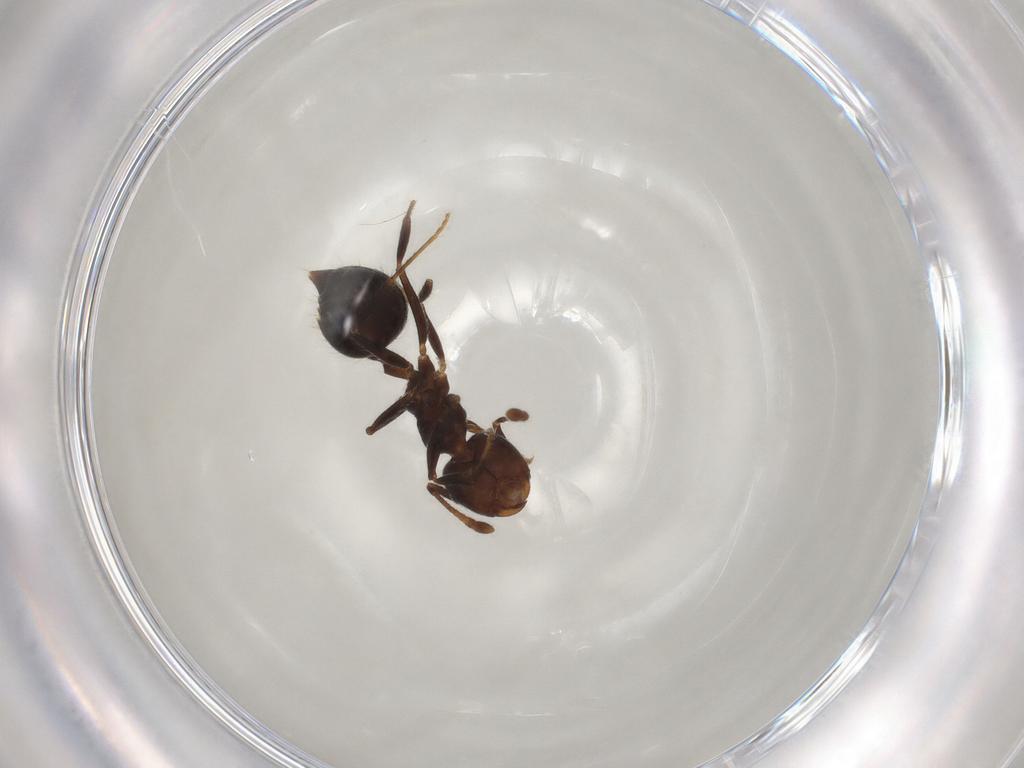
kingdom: Animalia
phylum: Arthropoda
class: Insecta
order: Hymenoptera
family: Formicidae
